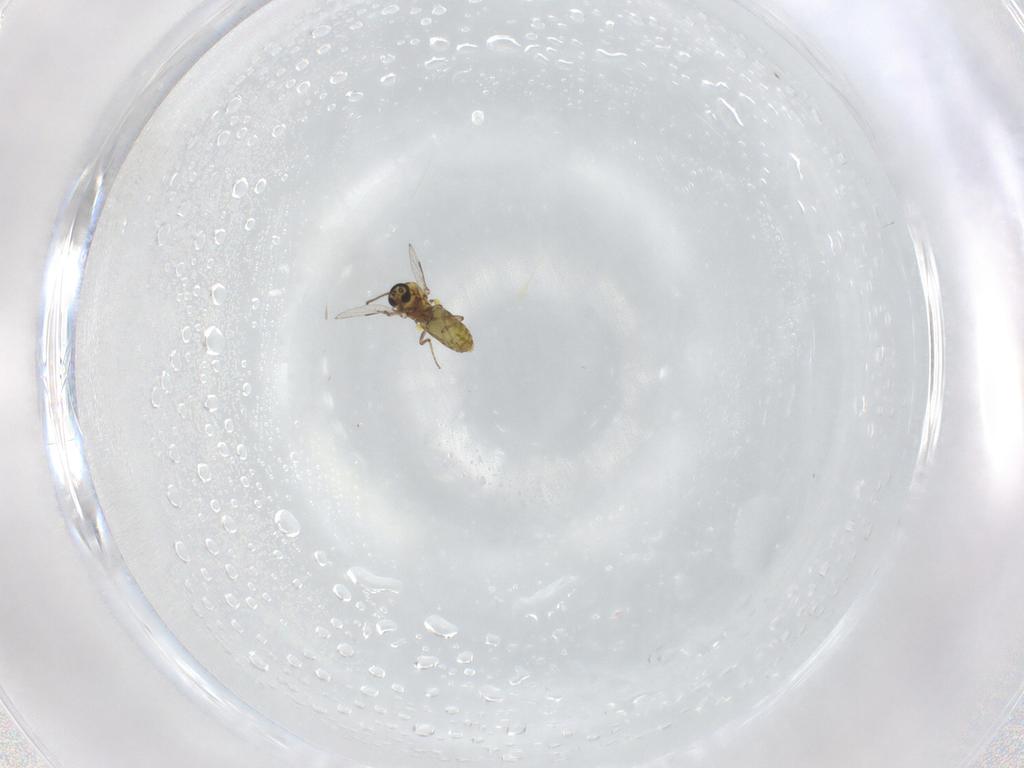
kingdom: Animalia
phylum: Arthropoda
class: Insecta
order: Diptera
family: Ceratopogonidae
